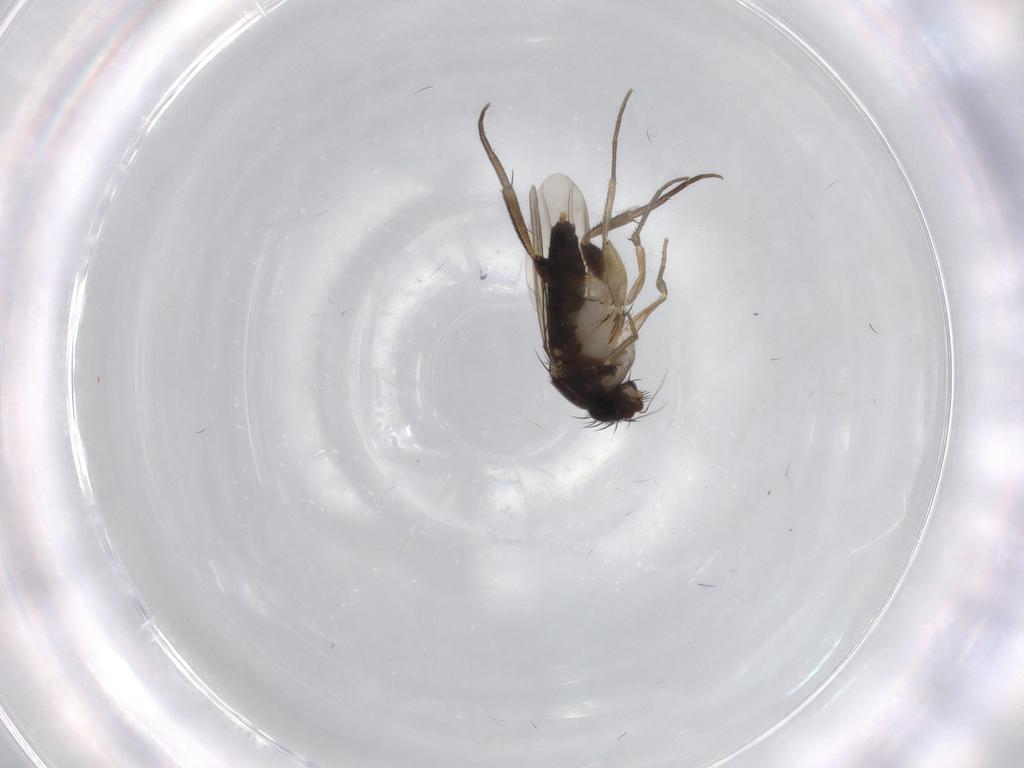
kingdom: Animalia
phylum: Arthropoda
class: Insecta
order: Diptera
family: Phoridae
